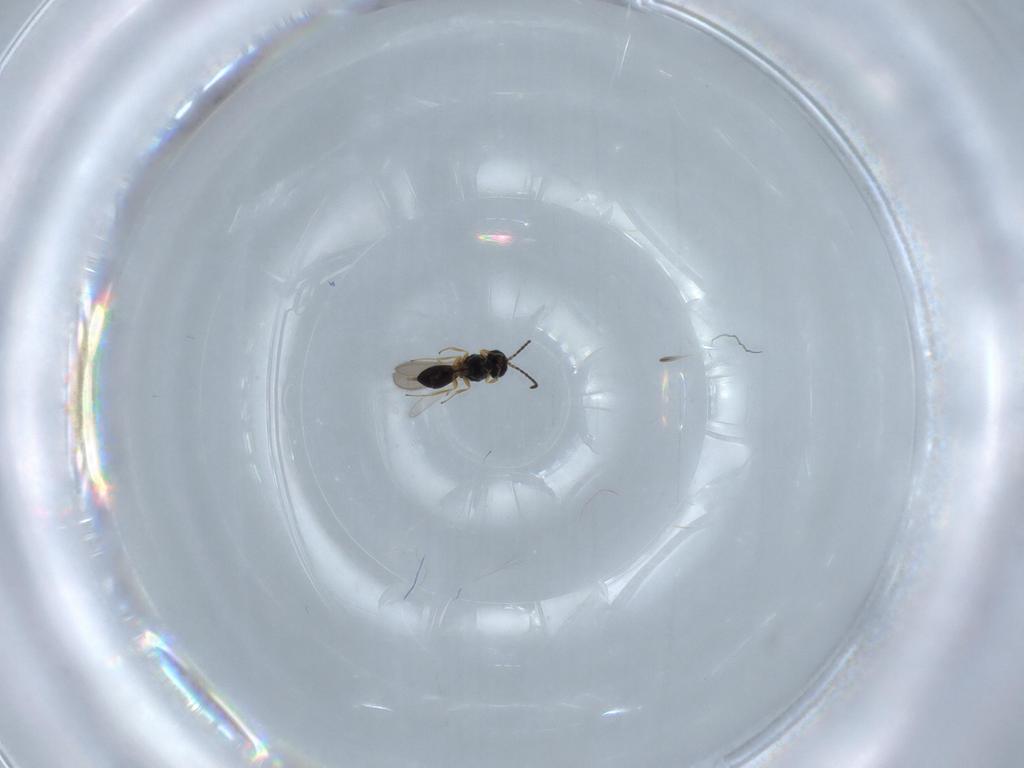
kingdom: Animalia
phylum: Arthropoda
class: Insecta
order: Hymenoptera
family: Scelionidae
